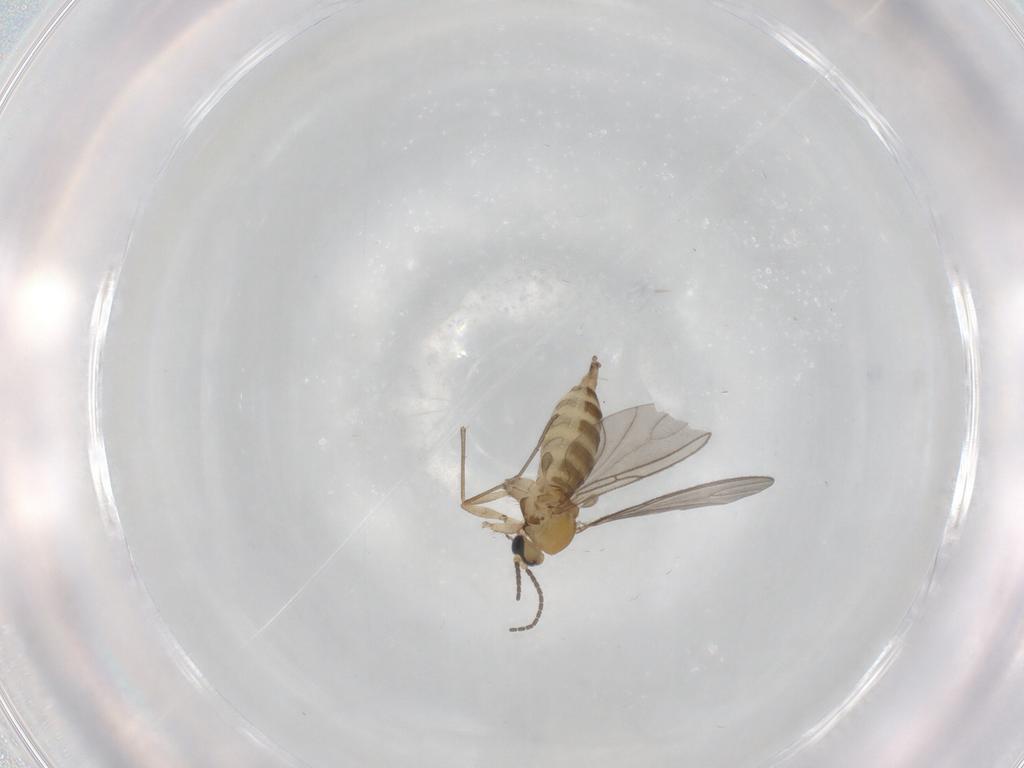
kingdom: Animalia
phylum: Arthropoda
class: Insecta
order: Diptera
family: Sciaridae
